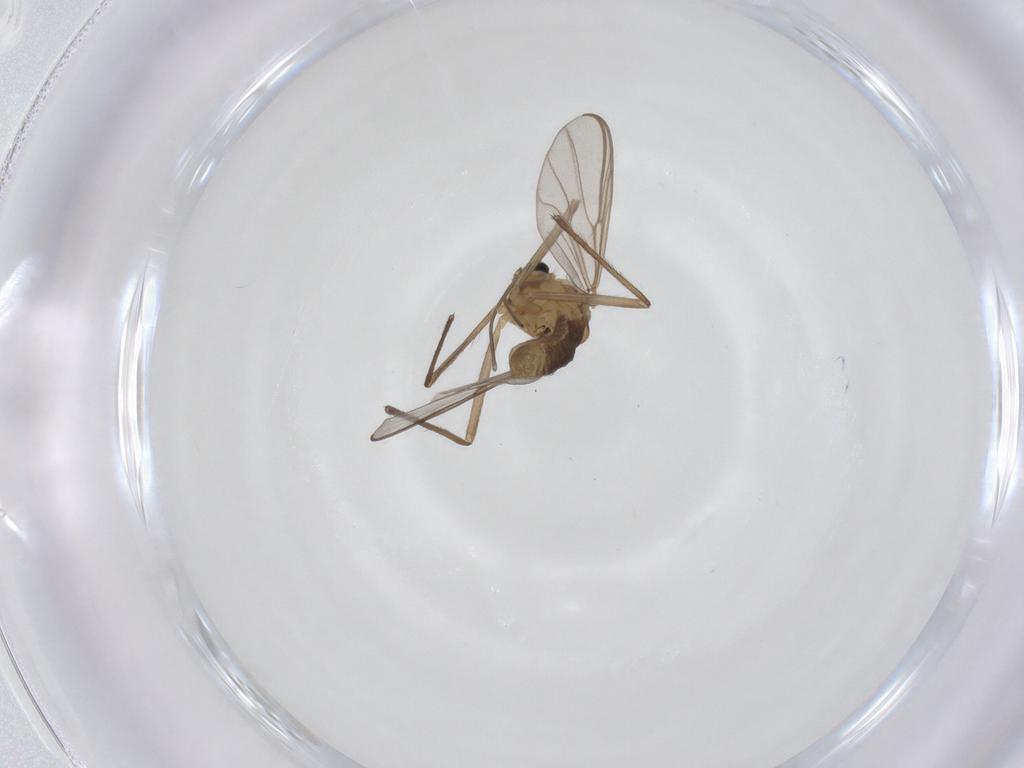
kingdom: Animalia
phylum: Arthropoda
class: Insecta
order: Diptera
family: Chironomidae
